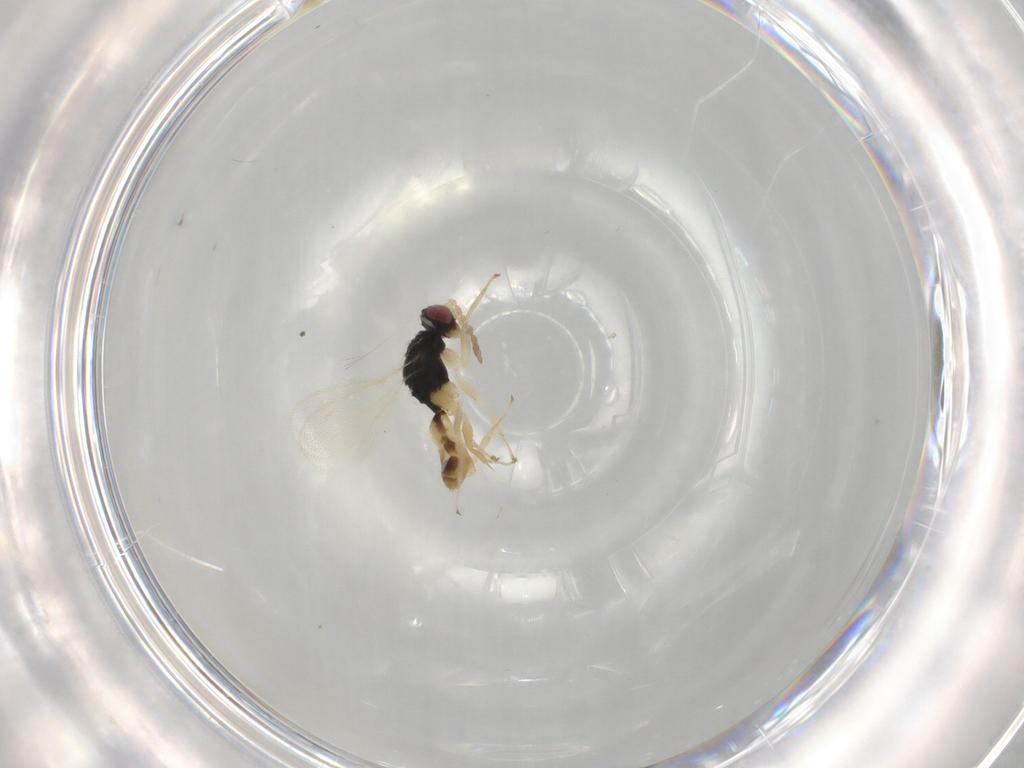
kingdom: Animalia
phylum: Arthropoda
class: Insecta
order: Hymenoptera
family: Eulophidae
